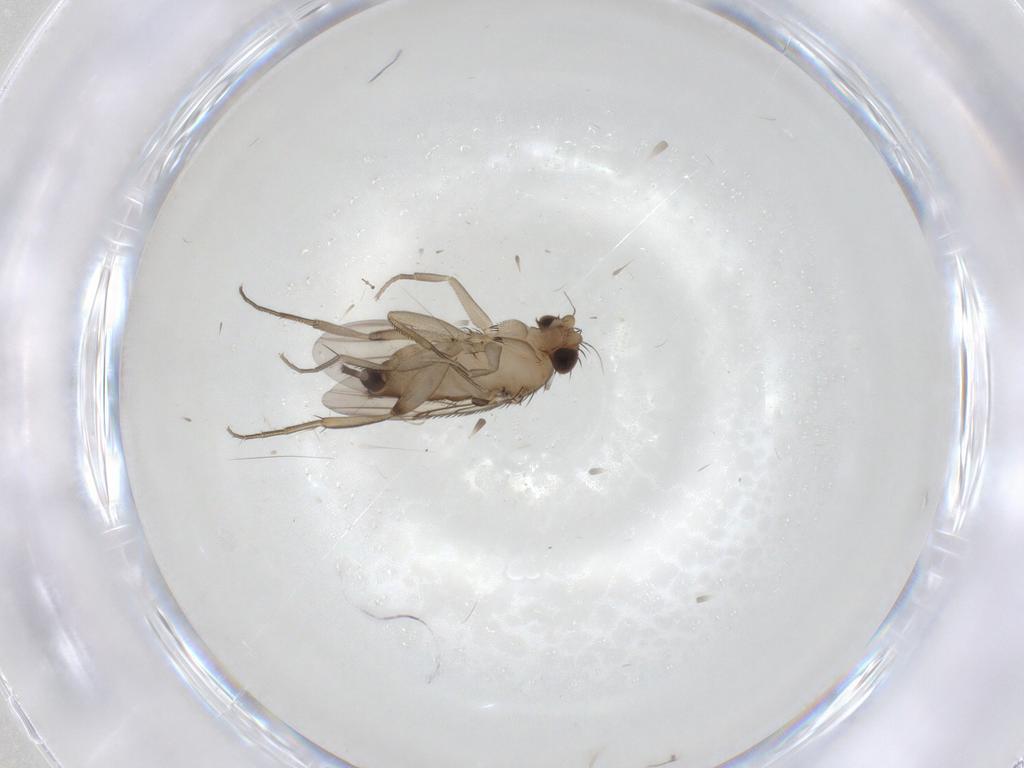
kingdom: Animalia
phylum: Arthropoda
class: Insecta
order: Diptera
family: Phoridae
